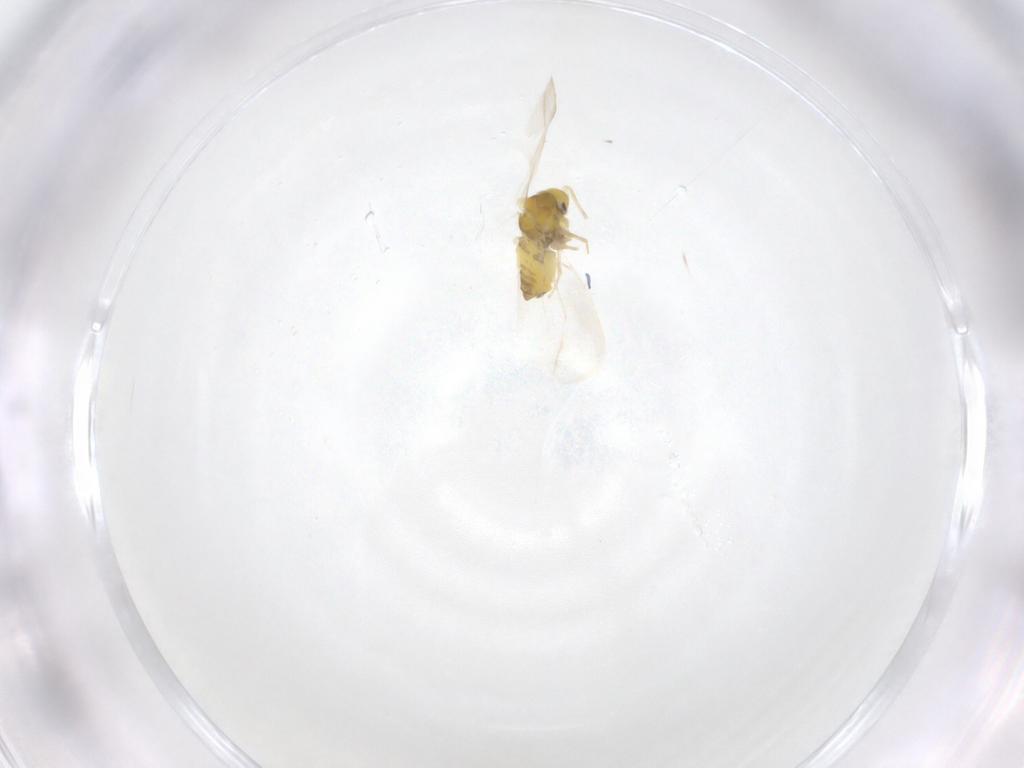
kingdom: Animalia
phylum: Arthropoda
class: Insecta
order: Hemiptera
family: Aleyrodidae
